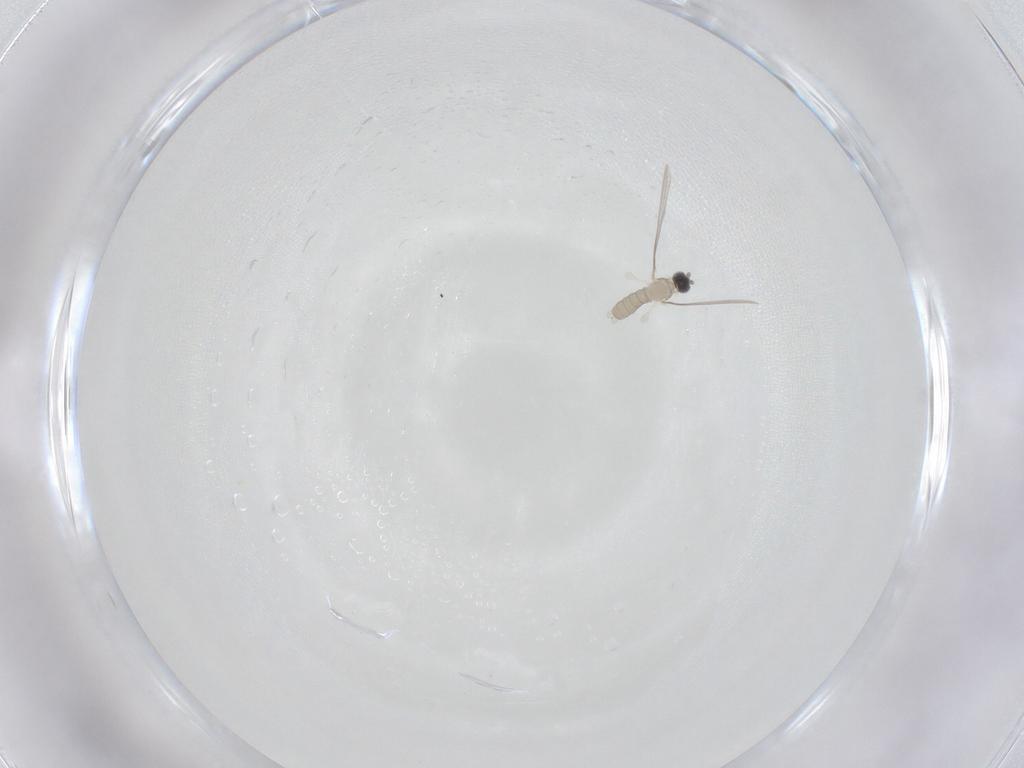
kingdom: Animalia
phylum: Arthropoda
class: Insecta
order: Diptera
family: Cecidomyiidae
